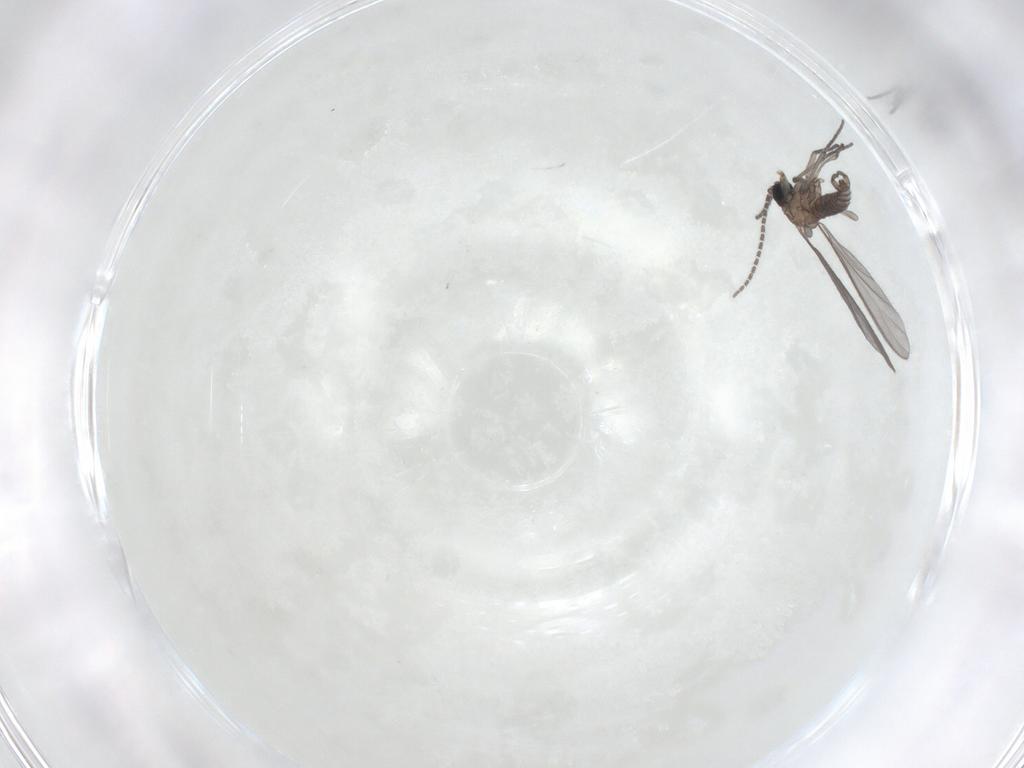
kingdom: Animalia
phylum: Arthropoda
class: Insecta
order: Diptera
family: Sciaridae
